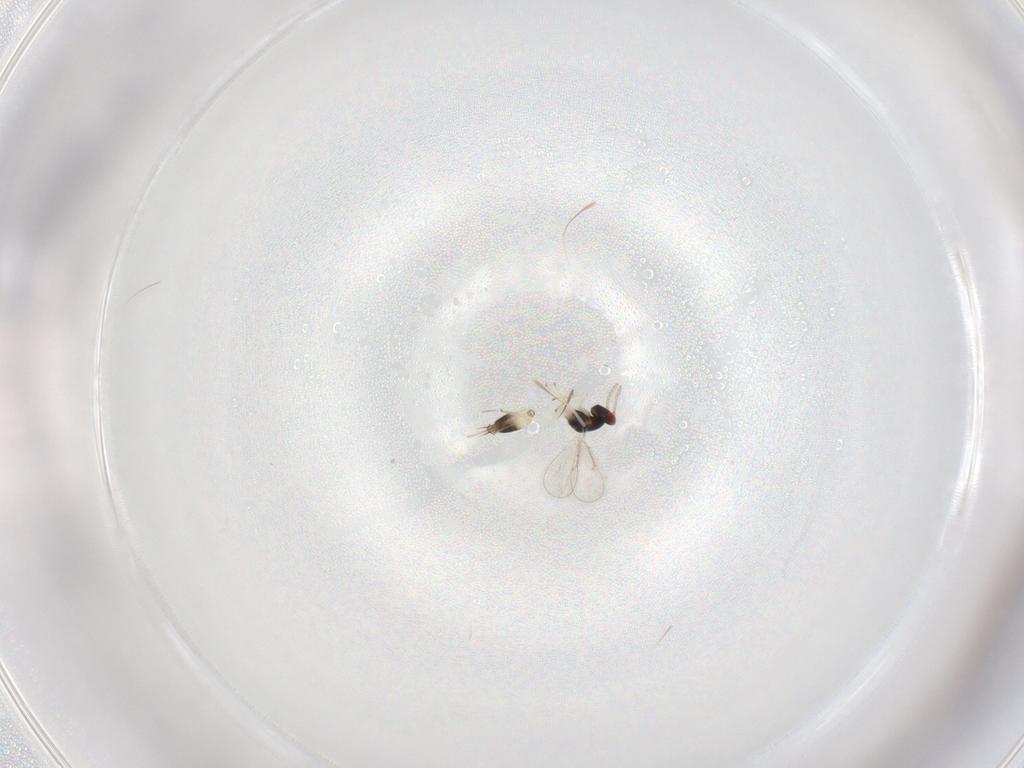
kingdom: Animalia
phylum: Arthropoda
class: Insecta
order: Hymenoptera
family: Eulophidae
